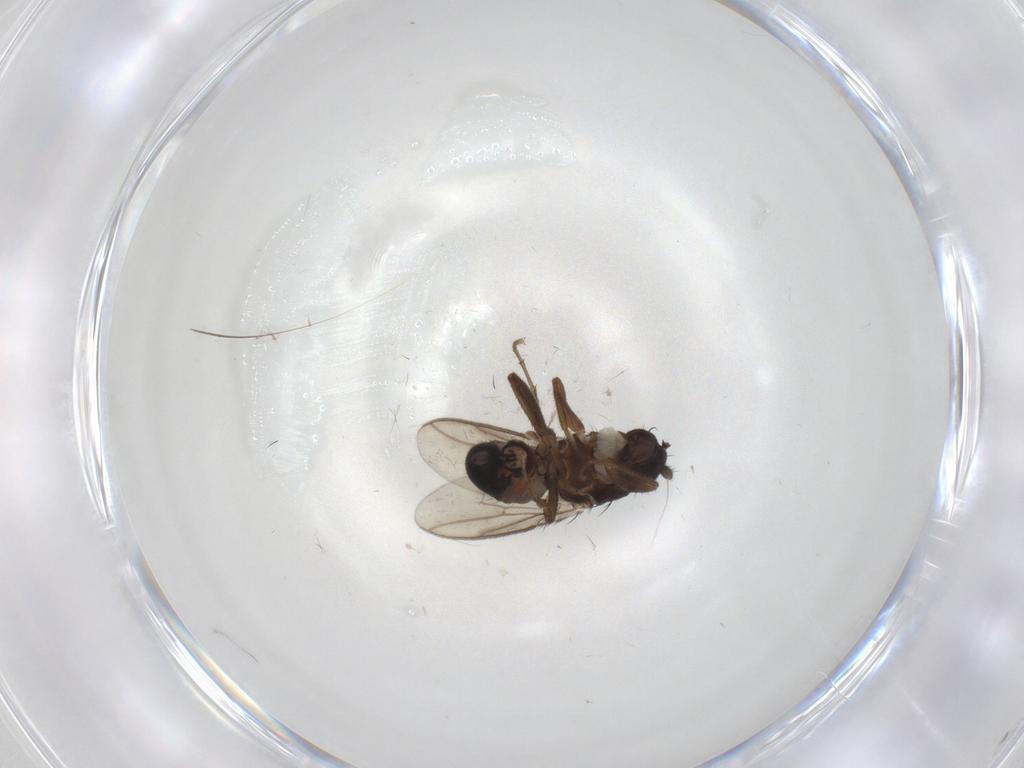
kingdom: Animalia
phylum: Arthropoda
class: Insecta
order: Diptera
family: Sphaeroceridae
